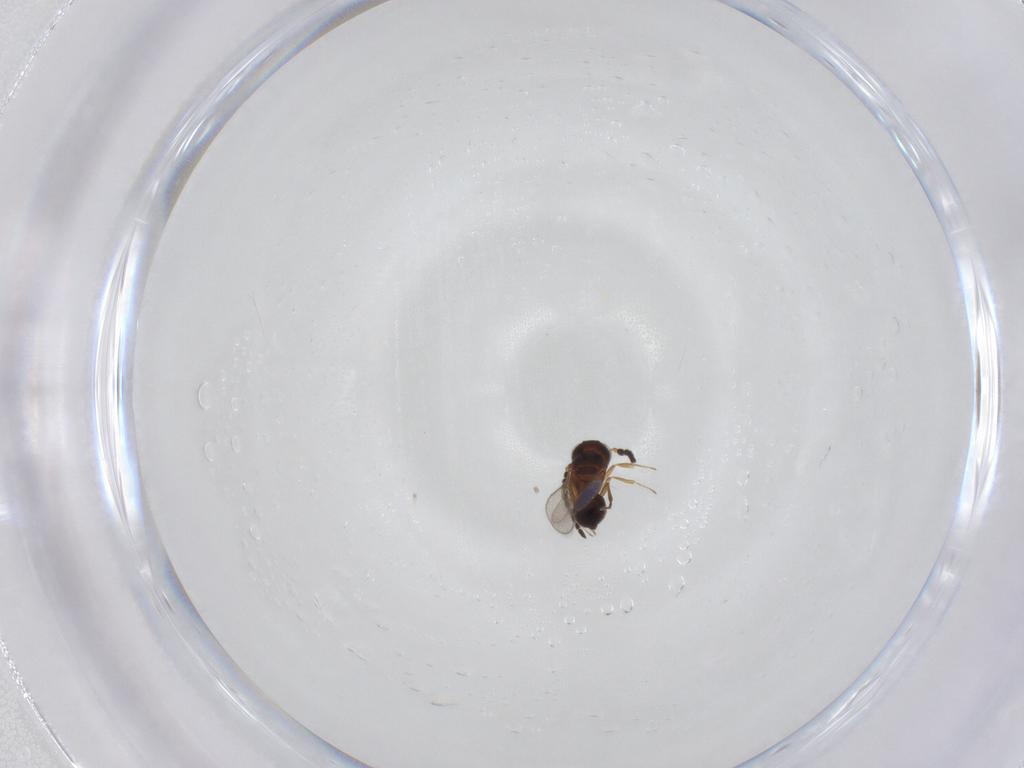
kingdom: Animalia
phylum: Arthropoda
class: Insecta
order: Hymenoptera
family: Scelionidae
